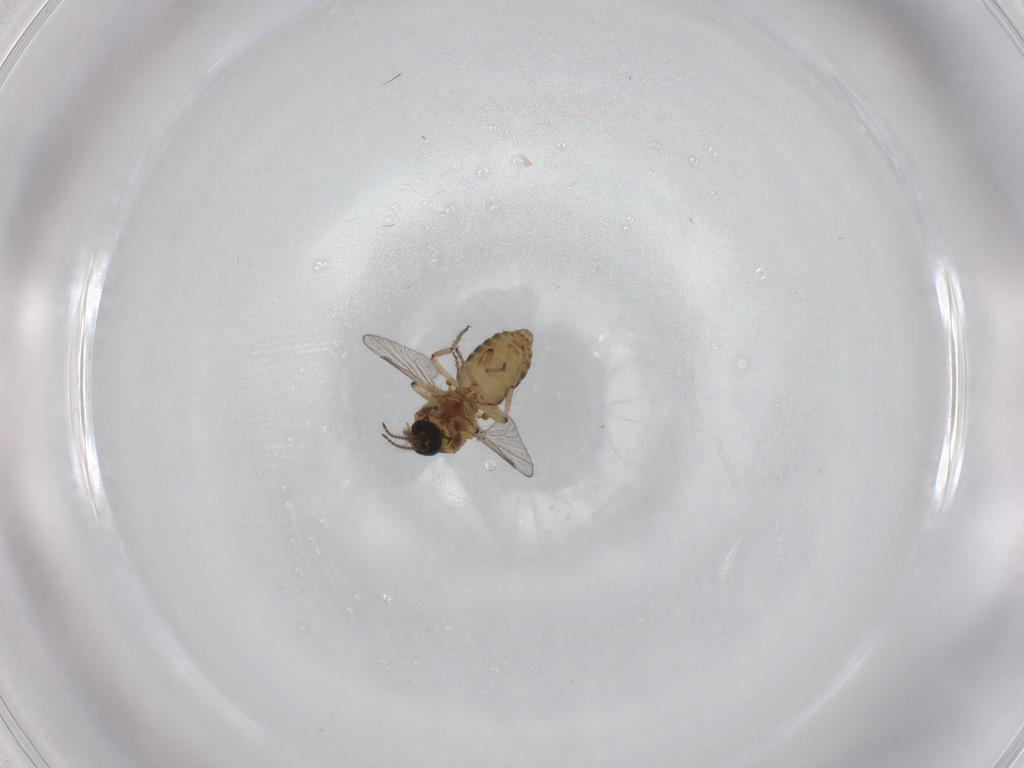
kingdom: Animalia
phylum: Arthropoda
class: Insecta
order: Diptera
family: Ceratopogonidae
